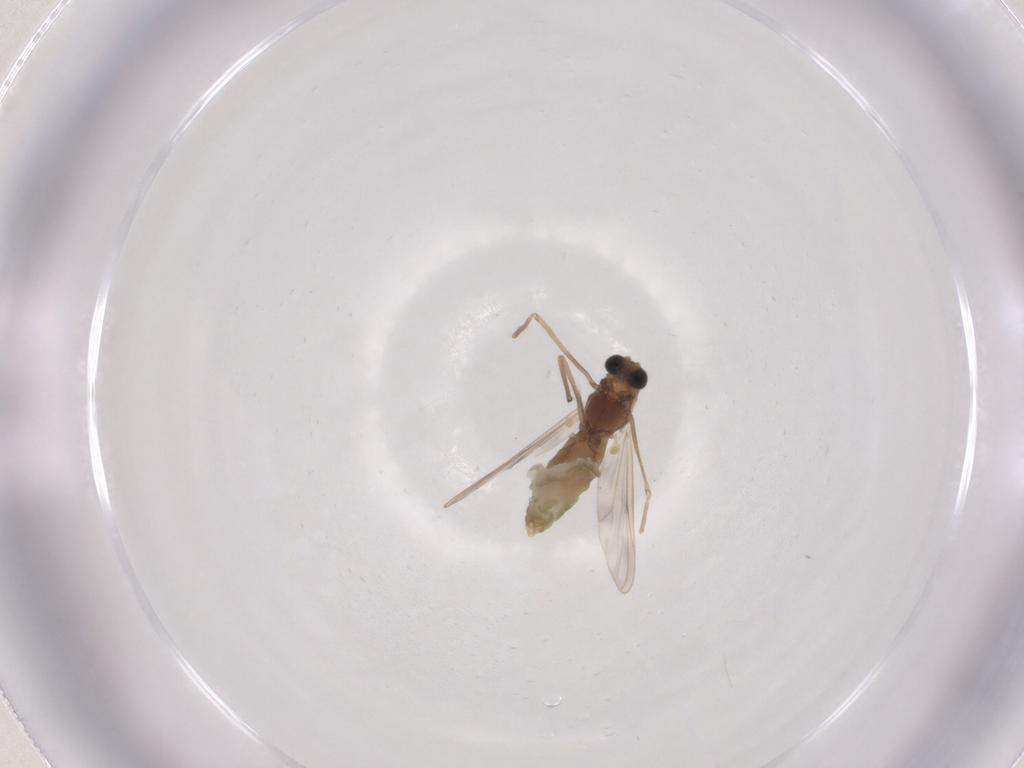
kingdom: Animalia
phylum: Arthropoda
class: Insecta
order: Diptera
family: Chironomidae
